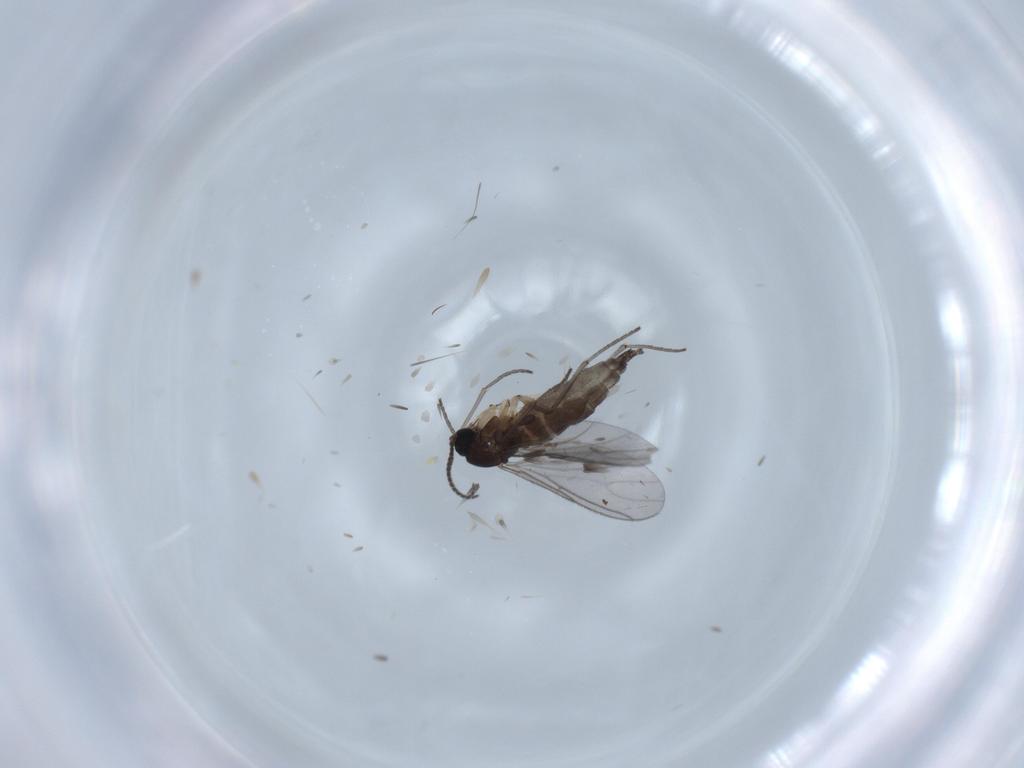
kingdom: Animalia
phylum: Arthropoda
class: Insecta
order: Diptera
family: Sciaridae
